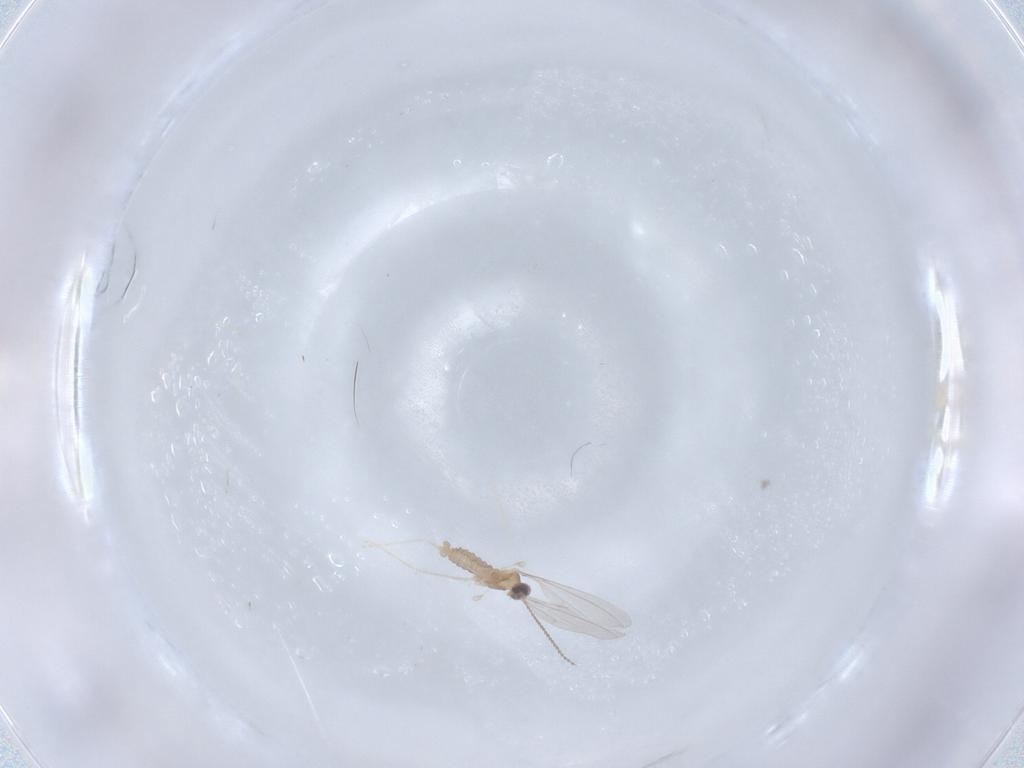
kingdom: Animalia
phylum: Arthropoda
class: Insecta
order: Diptera
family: Cecidomyiidae
